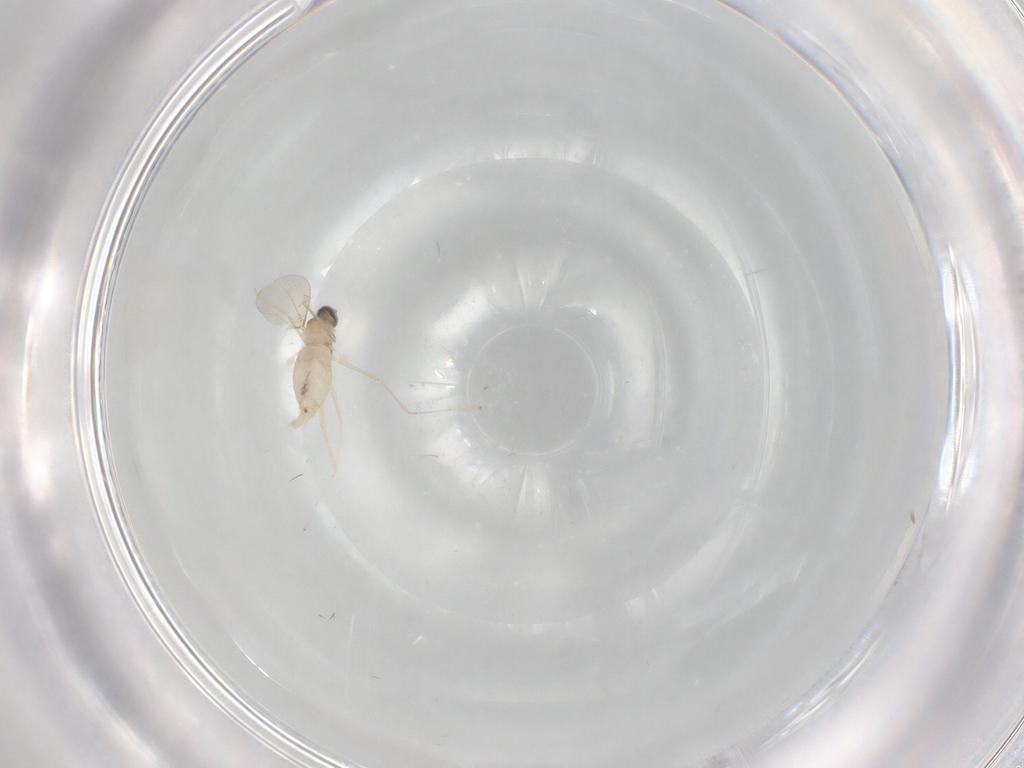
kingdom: Animalia
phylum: Arthropoda
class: Insecta
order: Diptera
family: Cecidomyiidae
